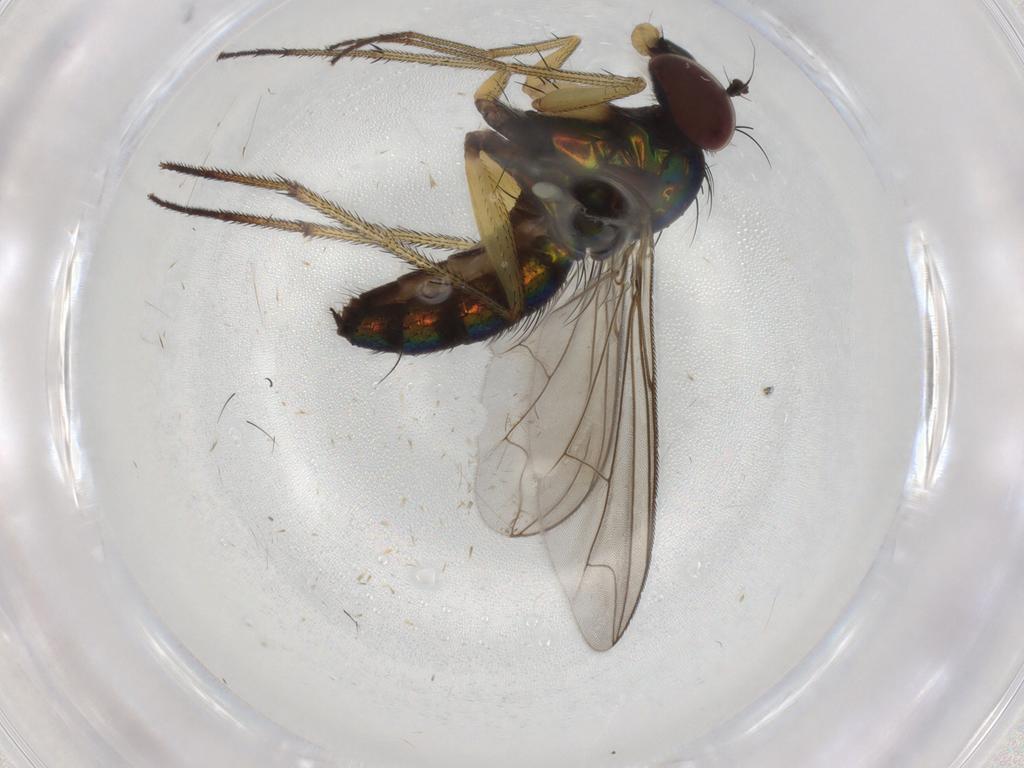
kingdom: Animalia
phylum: Arthropoda
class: Insecta
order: Diptera
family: Dolichopodidae
